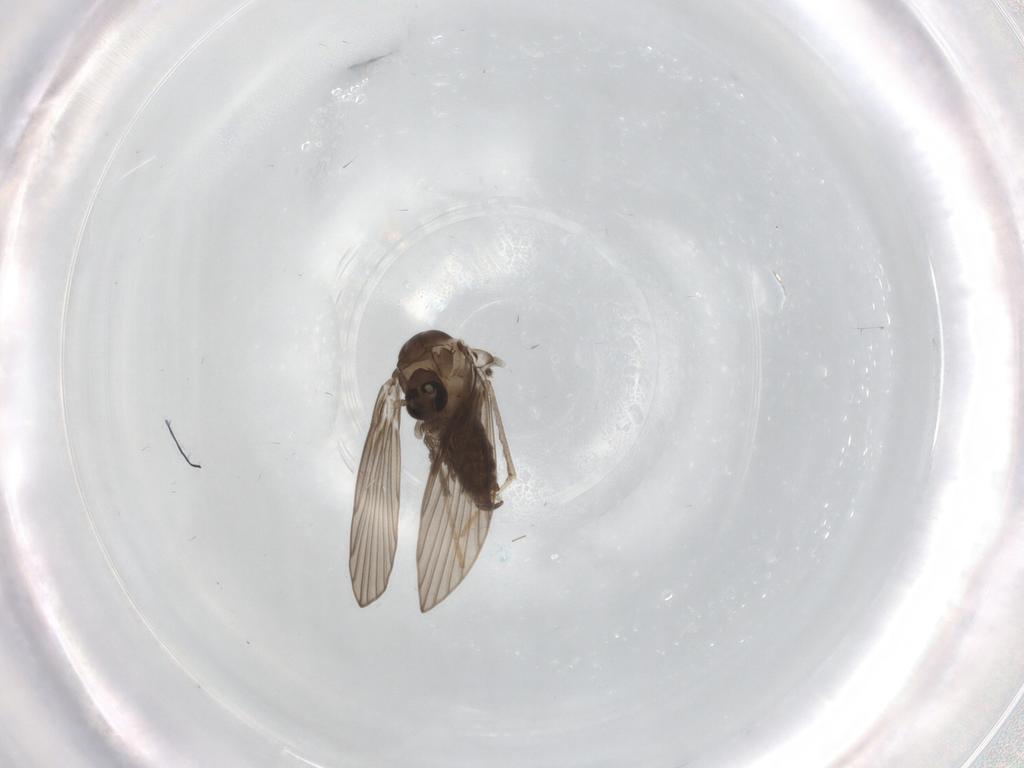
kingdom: Animalia
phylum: Arthropoda
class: Insecta
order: Diptera
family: Psychodidae
